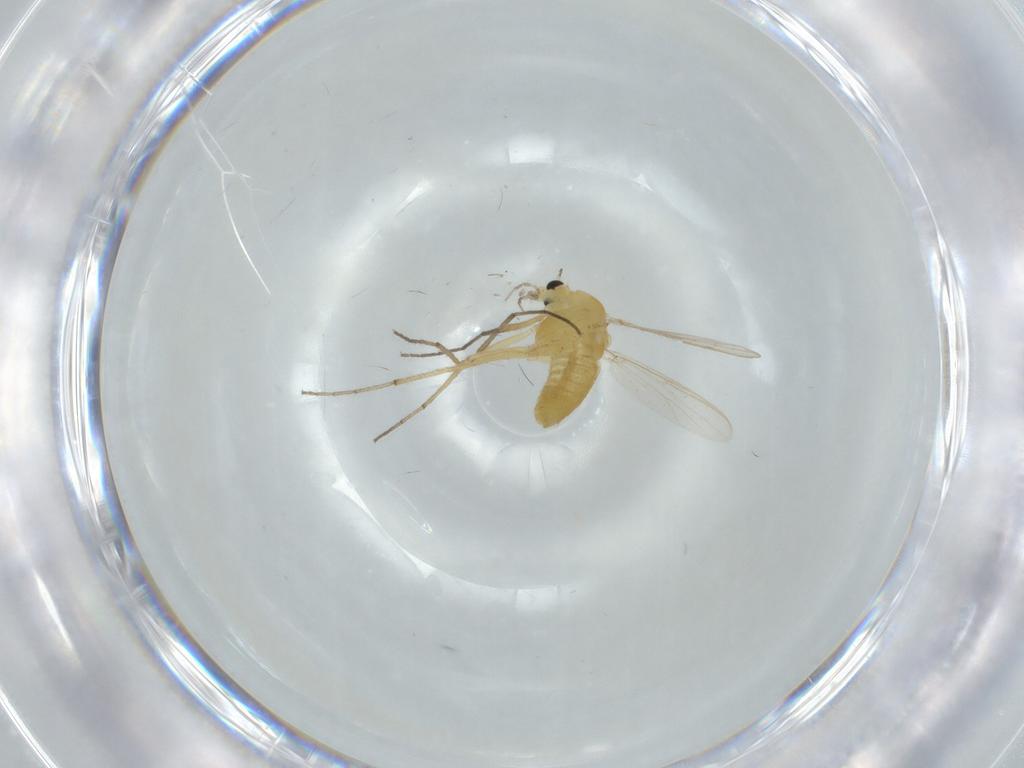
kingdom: Animalia
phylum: Arthropoda
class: Insecta
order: Diptera
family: Chironomidae
